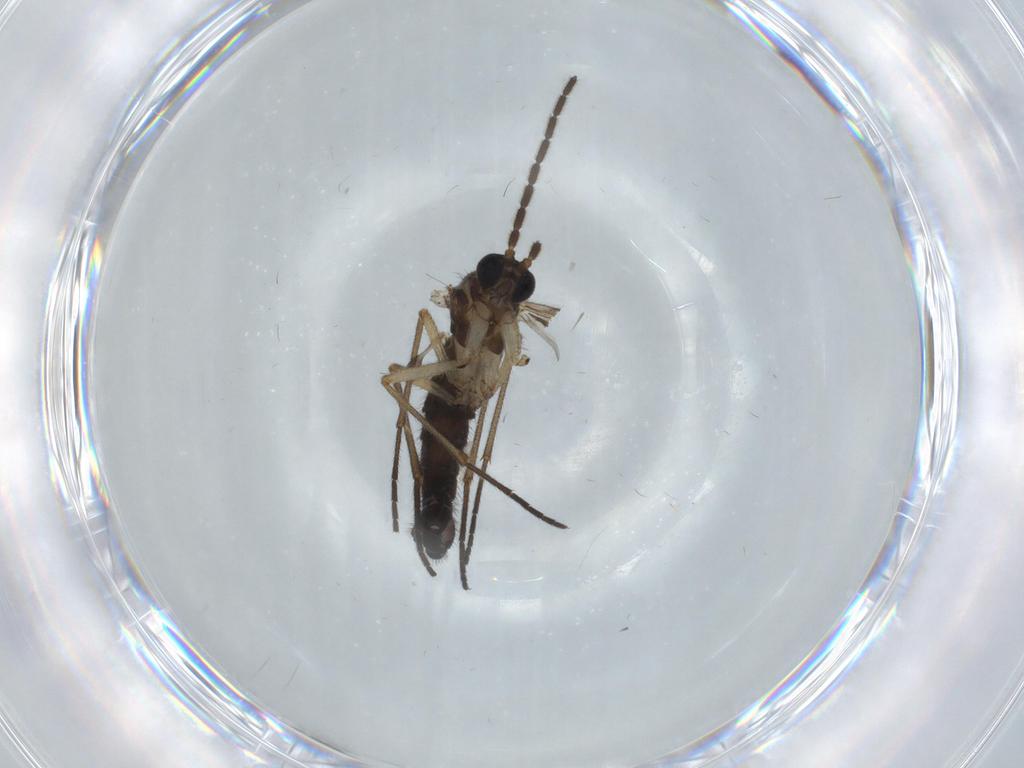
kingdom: Animalia
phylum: Arthropoda
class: Insecta
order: Diptera
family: Sciaridae
